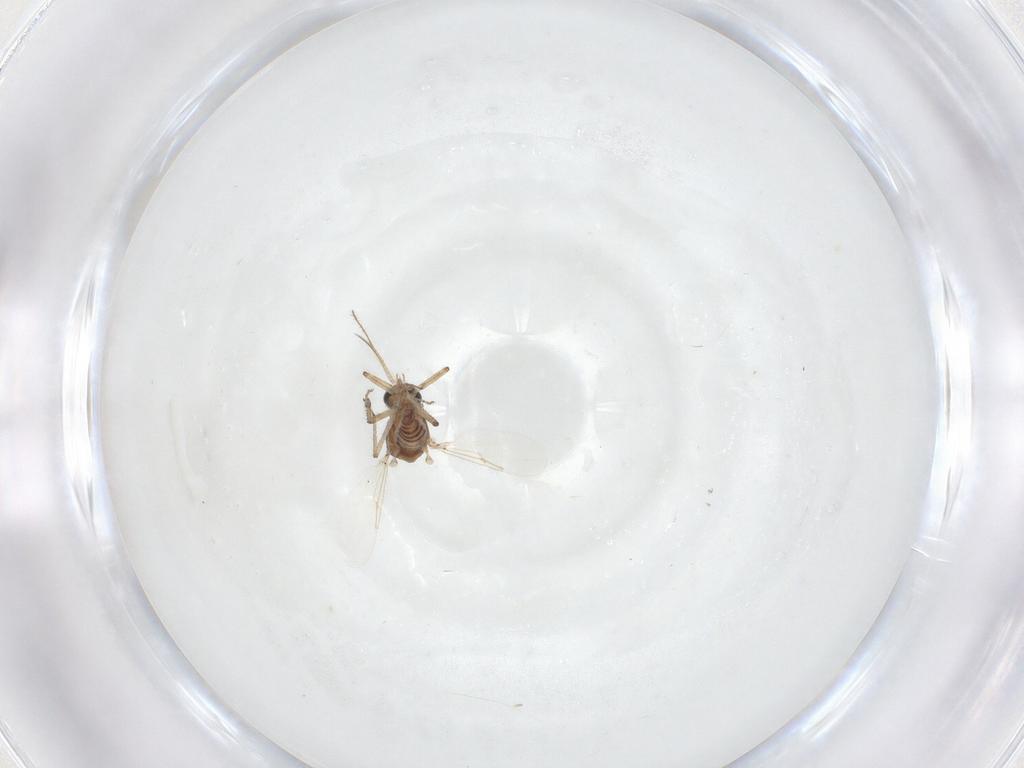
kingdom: Animalia
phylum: Arthropoda
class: Insecta
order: Diptera
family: Ceratopogonidae
